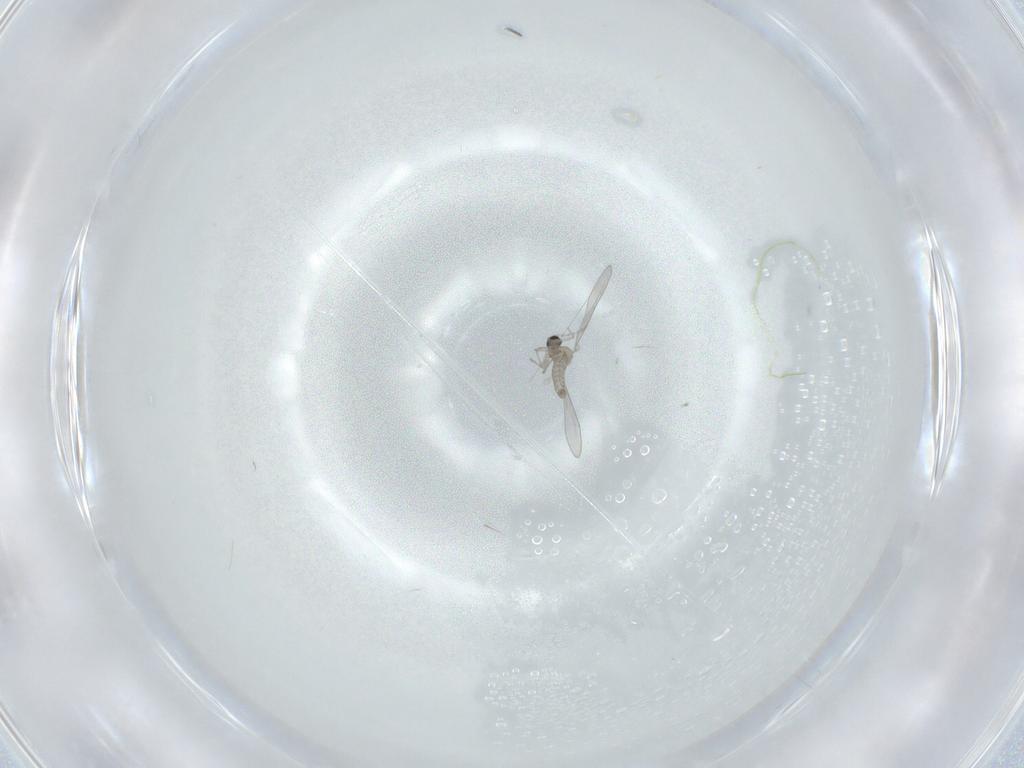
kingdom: Animalia
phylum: Arthropoda
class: Insecta
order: Diptera
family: Cecidomyiidae
